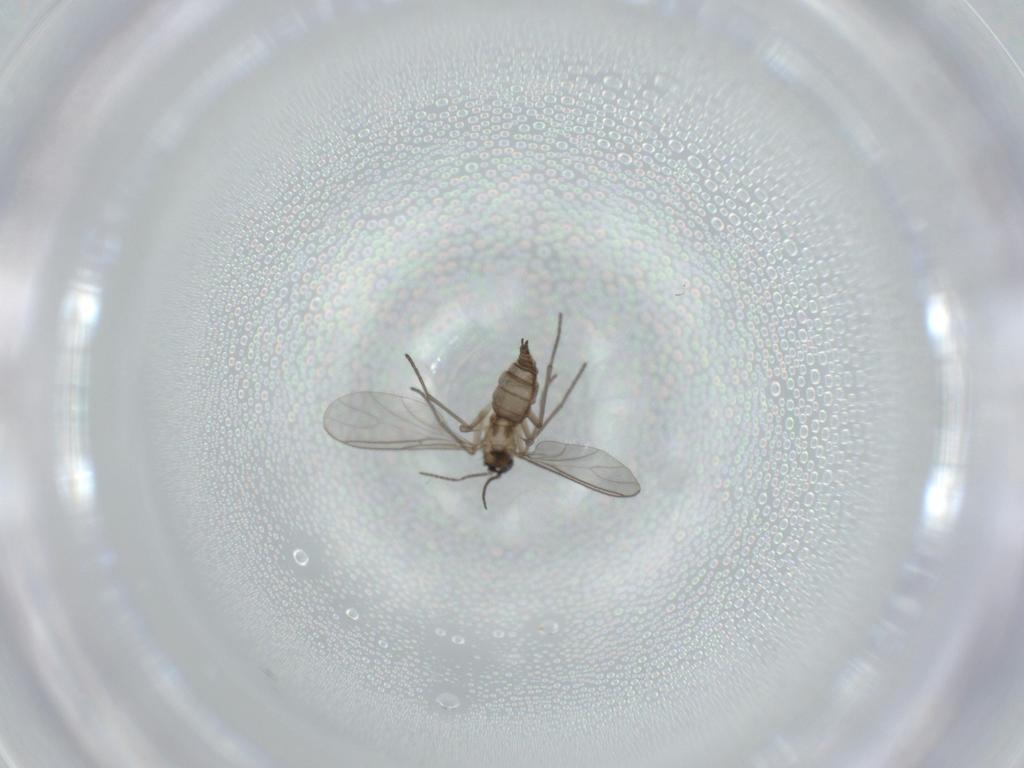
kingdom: Animalia
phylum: Arthropoda
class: Insecta
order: Diptera
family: Sciaridae
